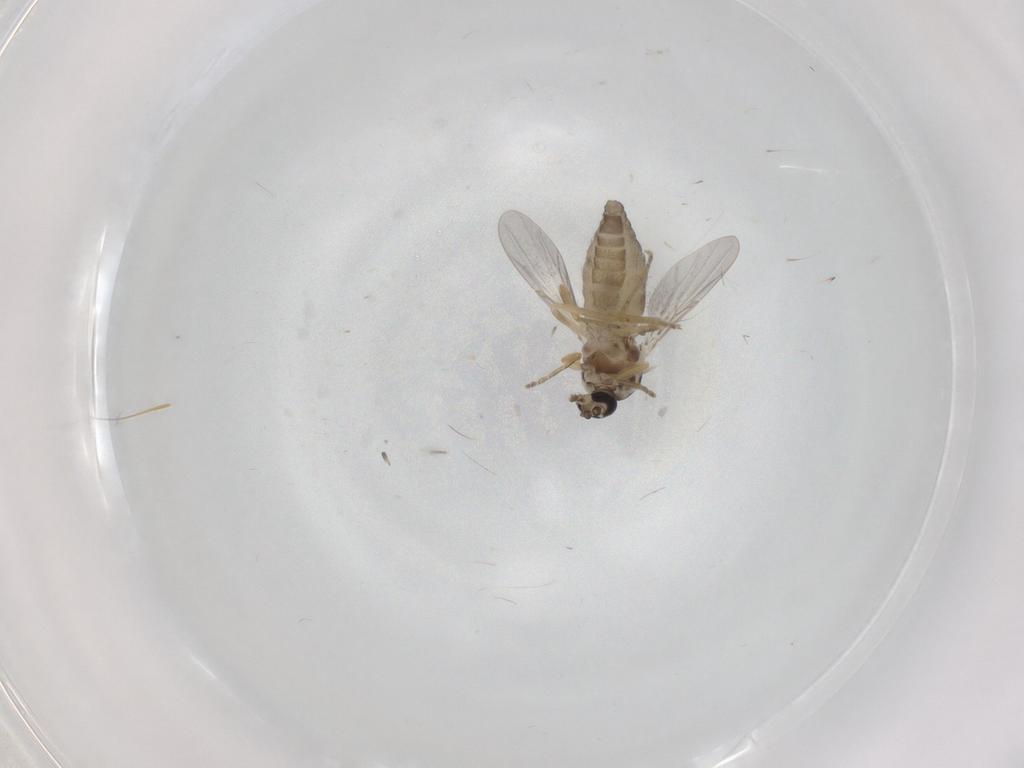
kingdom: Animalia
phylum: Arthropoda
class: Insecta
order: Diptera
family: Ceratopogonidae
